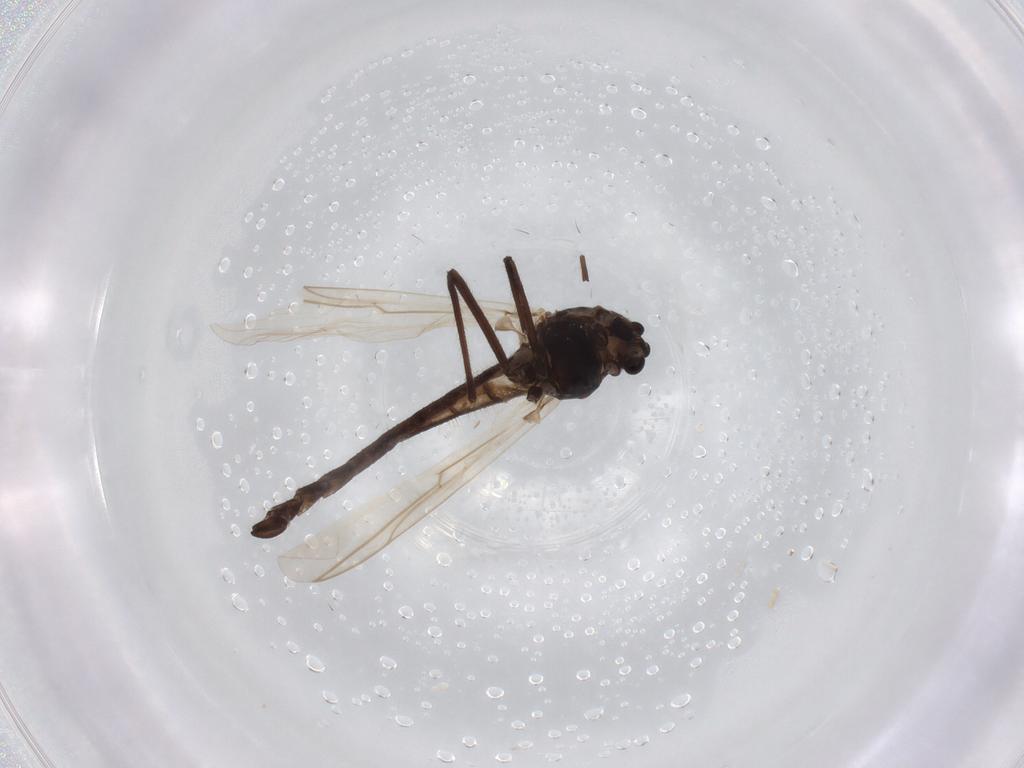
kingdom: Animalia
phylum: Arthropoda
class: Insecta
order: Diptera
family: Chironomidae
